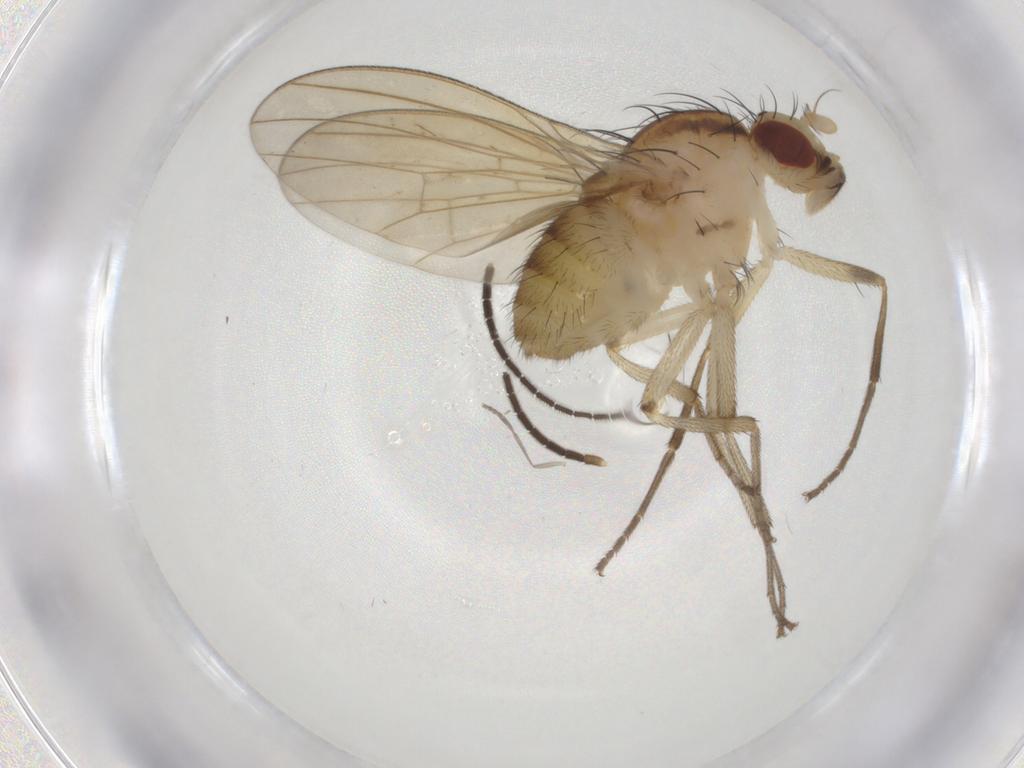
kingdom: Animalia
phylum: Arthropoda
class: Insecta
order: Diptera
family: Sciaridae
